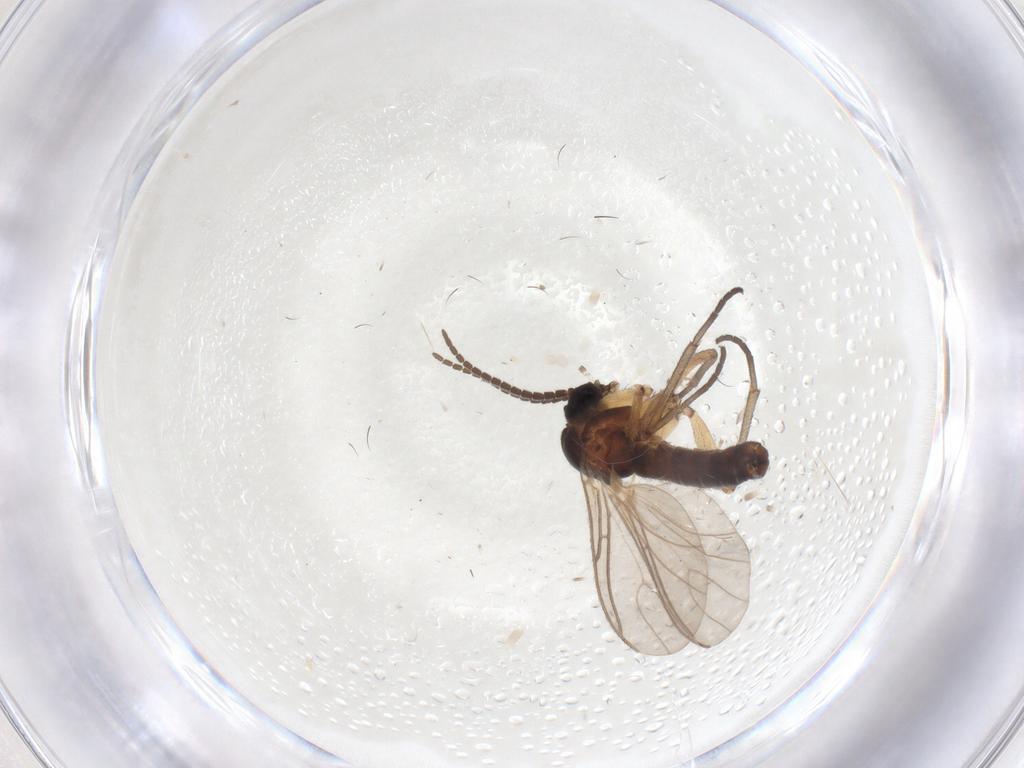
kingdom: Animalia
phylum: Arthropoda
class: Insecta
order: Diptera
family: Sciaridae
